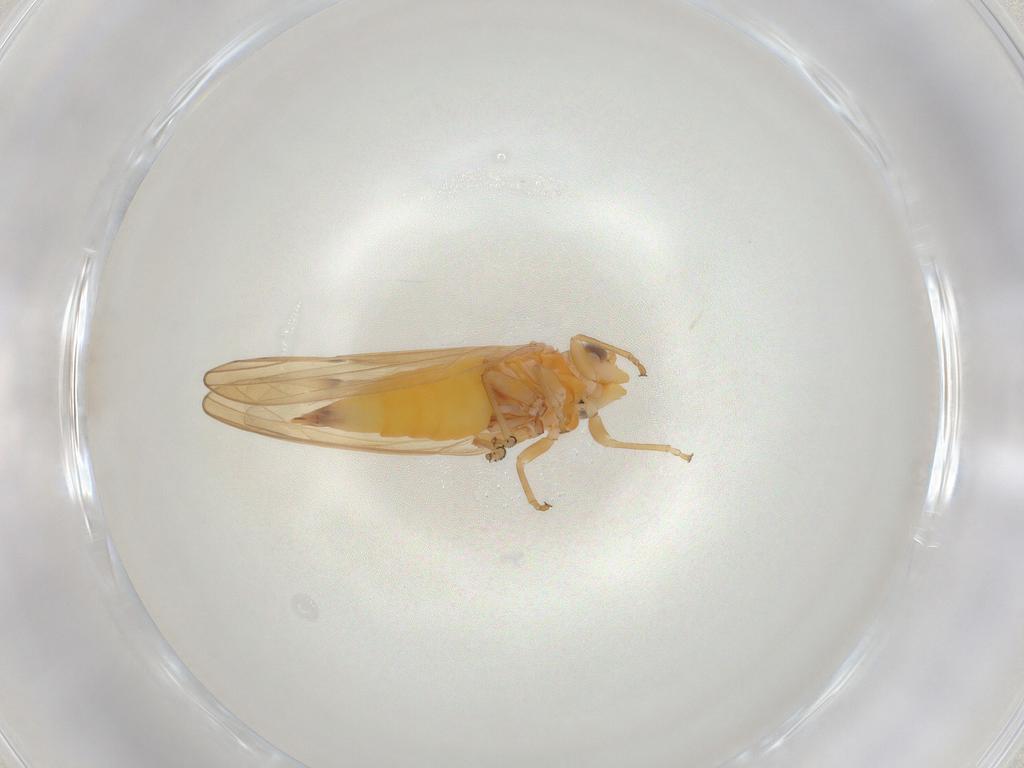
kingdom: Animalia
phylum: Arthropoda
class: Insecta
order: Hemiptera
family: Psylloidea_incertae_sedis
